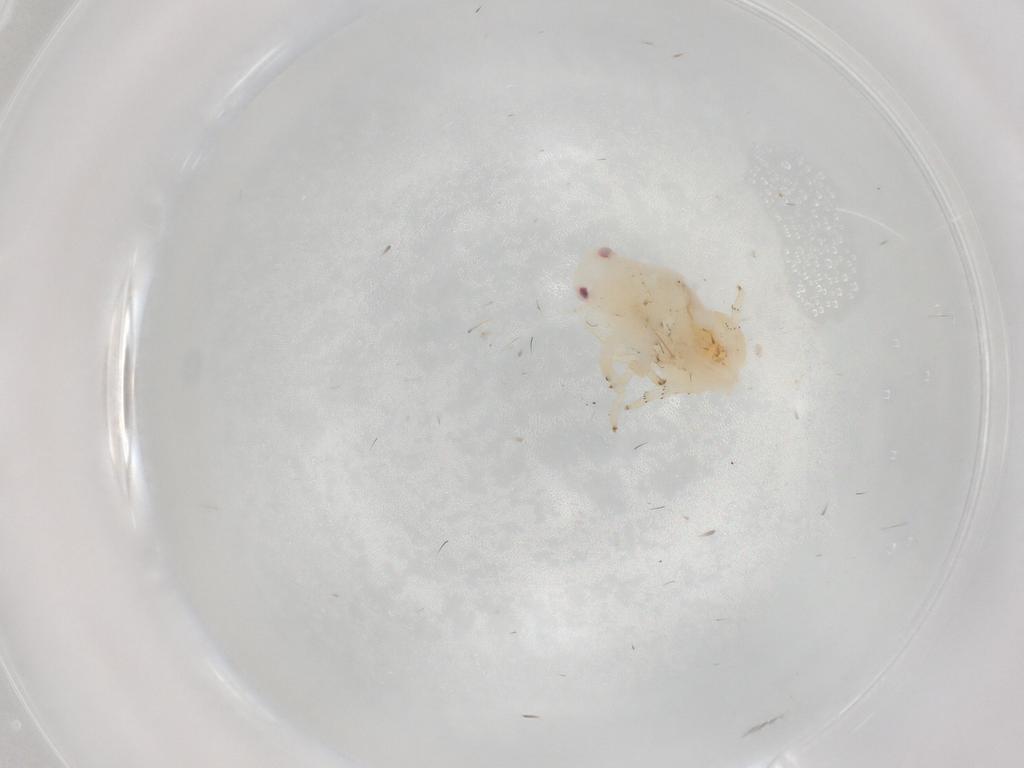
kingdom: Animalia
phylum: Arthropoda
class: Insecta
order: Hemiptera
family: Flatidae
